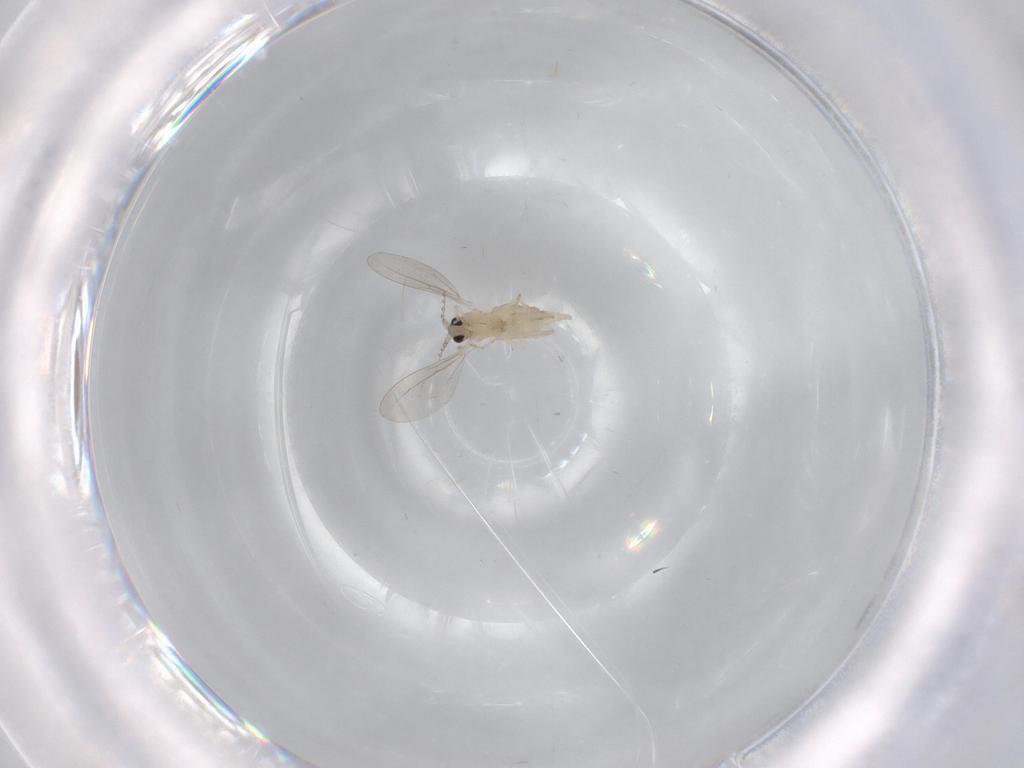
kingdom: Animalia
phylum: Arthropoda
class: Insecta
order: Diptera
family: Cecidomyiidae
